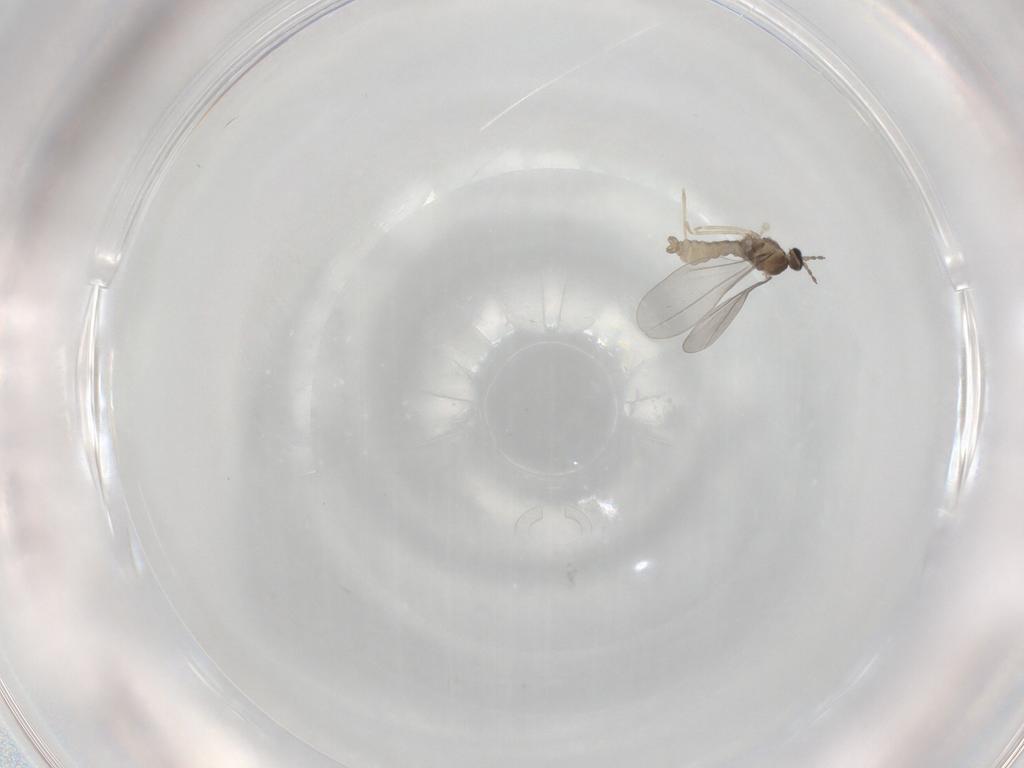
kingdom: Animalia
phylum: Arthropoda
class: Insecta
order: Diptera
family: Phoridae
